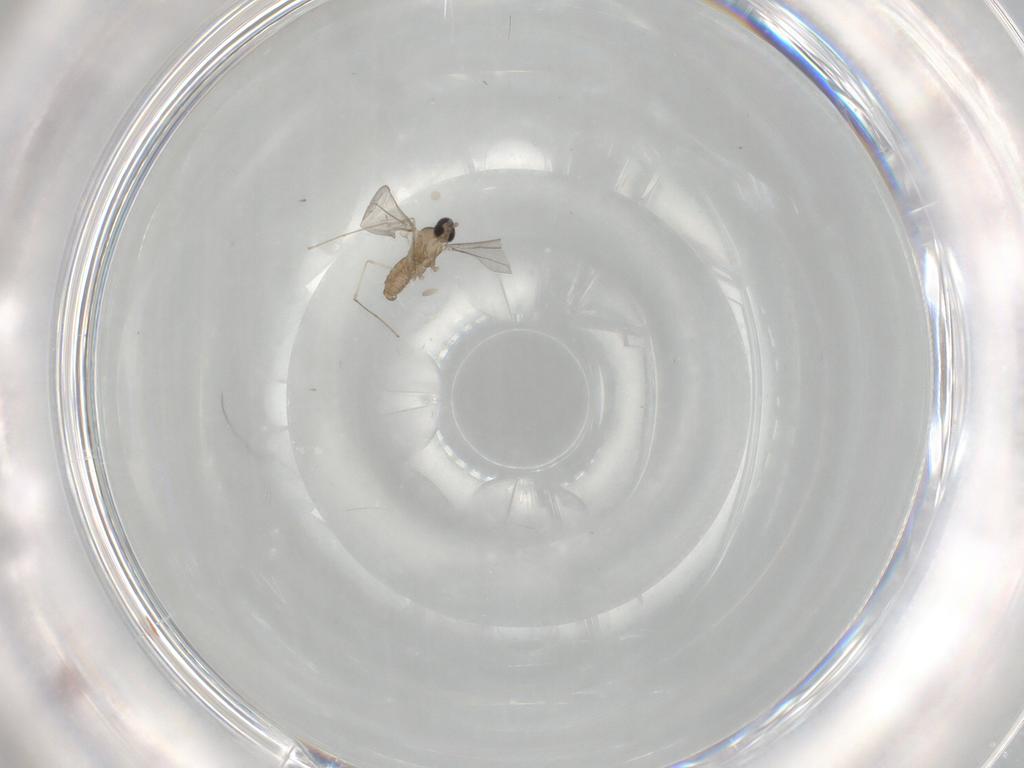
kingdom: Animalia
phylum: Arthropoda
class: Insecta
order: Diptera
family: Cecidomyiidae
